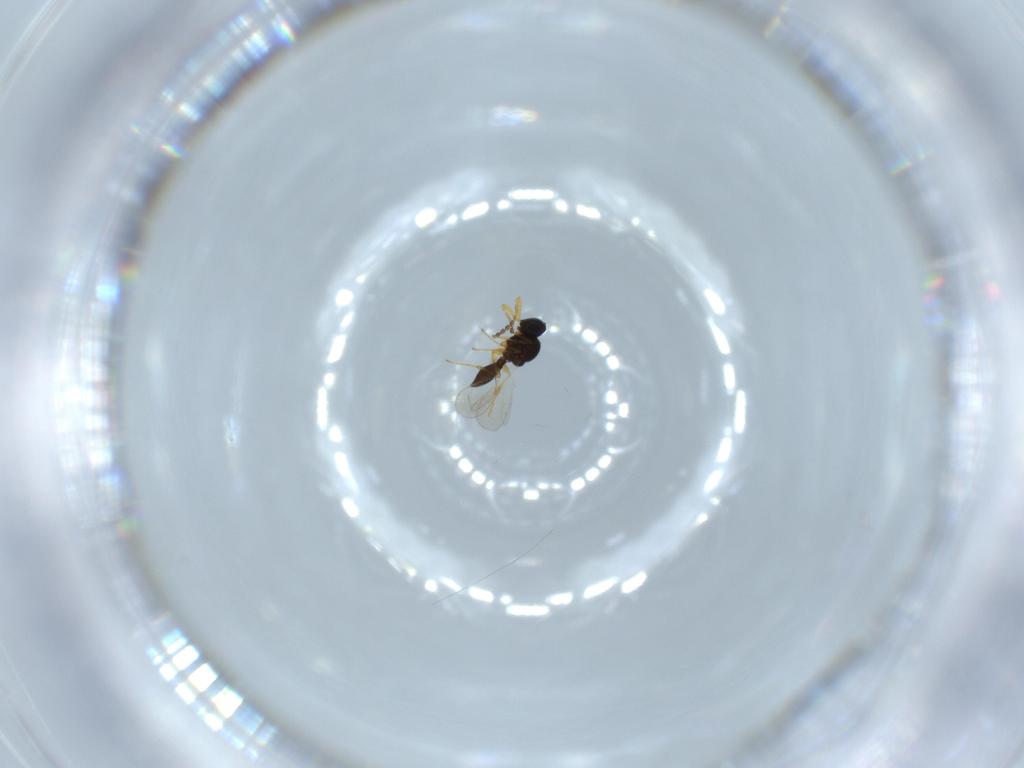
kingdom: Animalia
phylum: Arthropoda
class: Insecta
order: Hymenoptera
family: Platygastridae
